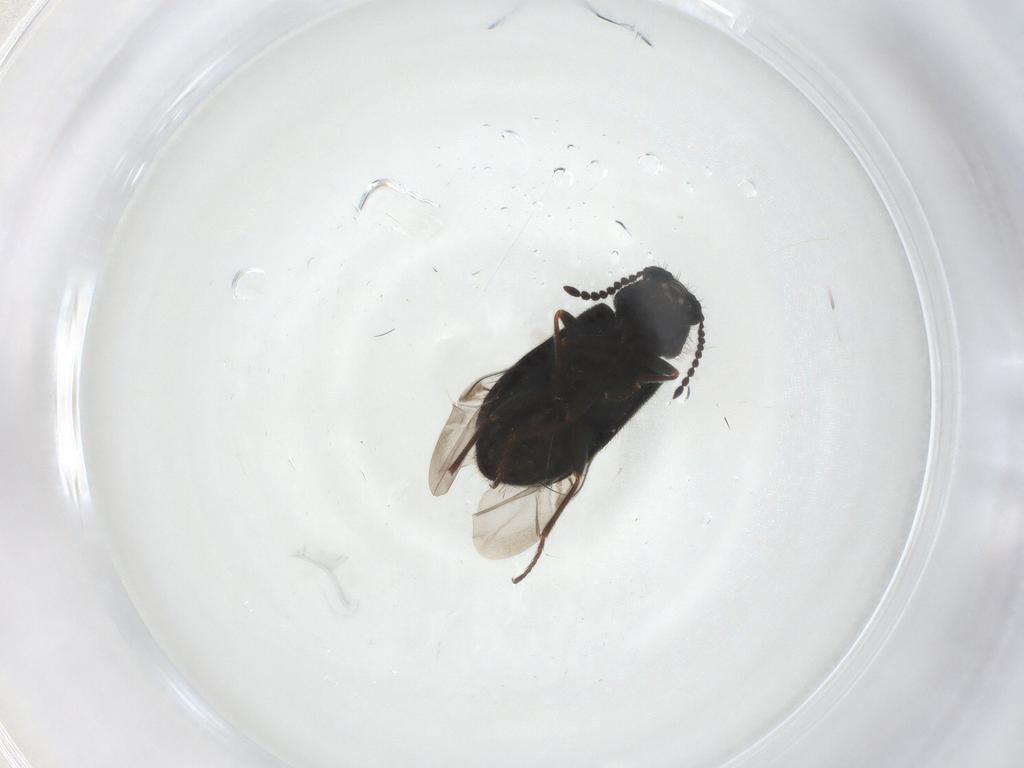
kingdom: Animalia
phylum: Arthropoda
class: Insecta
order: Coleoptera
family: Melyridae
